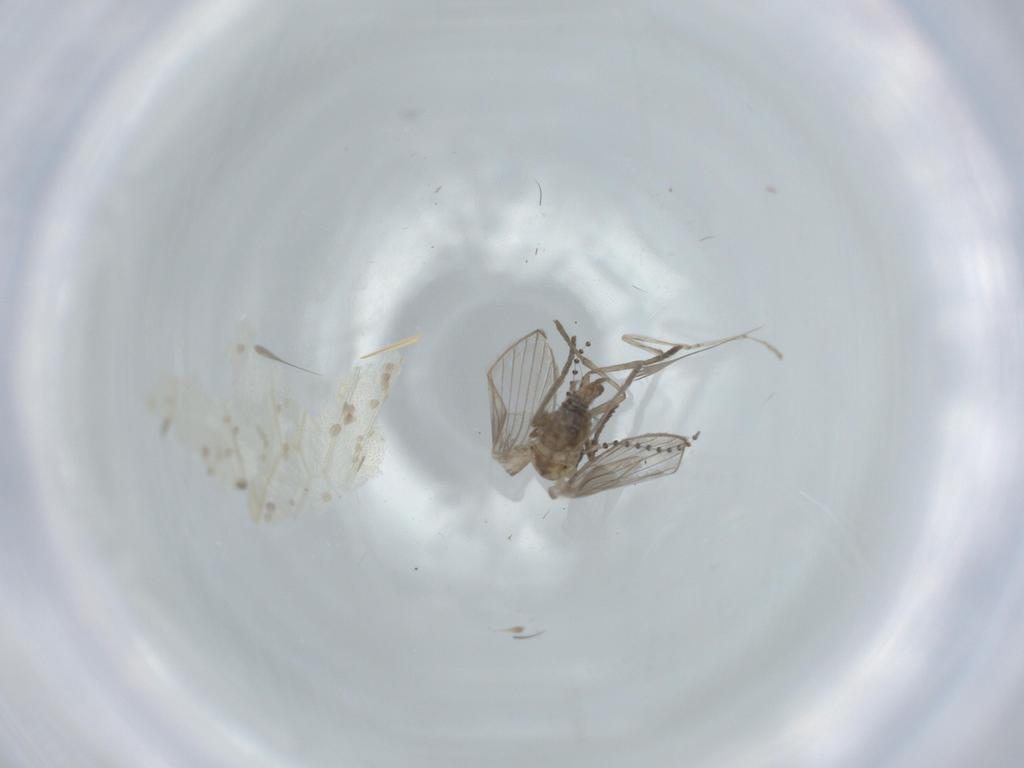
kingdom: Animalia
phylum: Arthropoda
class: Insecta
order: Diptera
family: Psychodidae
